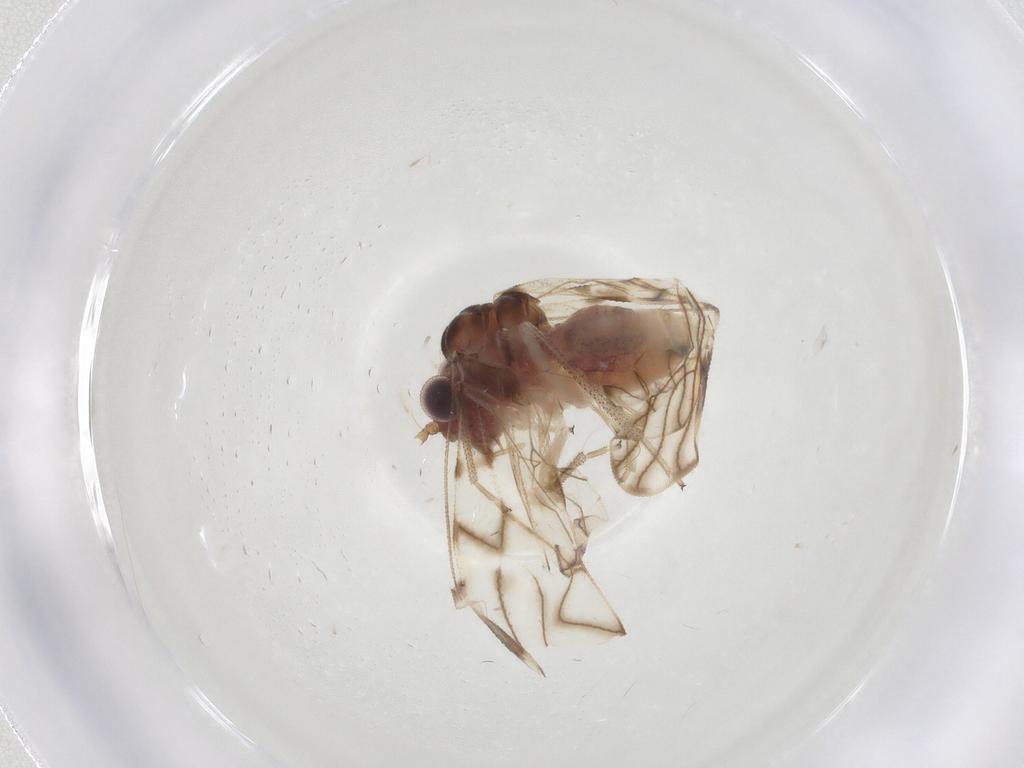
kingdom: Animalia
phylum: Arthropoda
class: Insecta
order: Psocodea
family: Amphipsocidae
